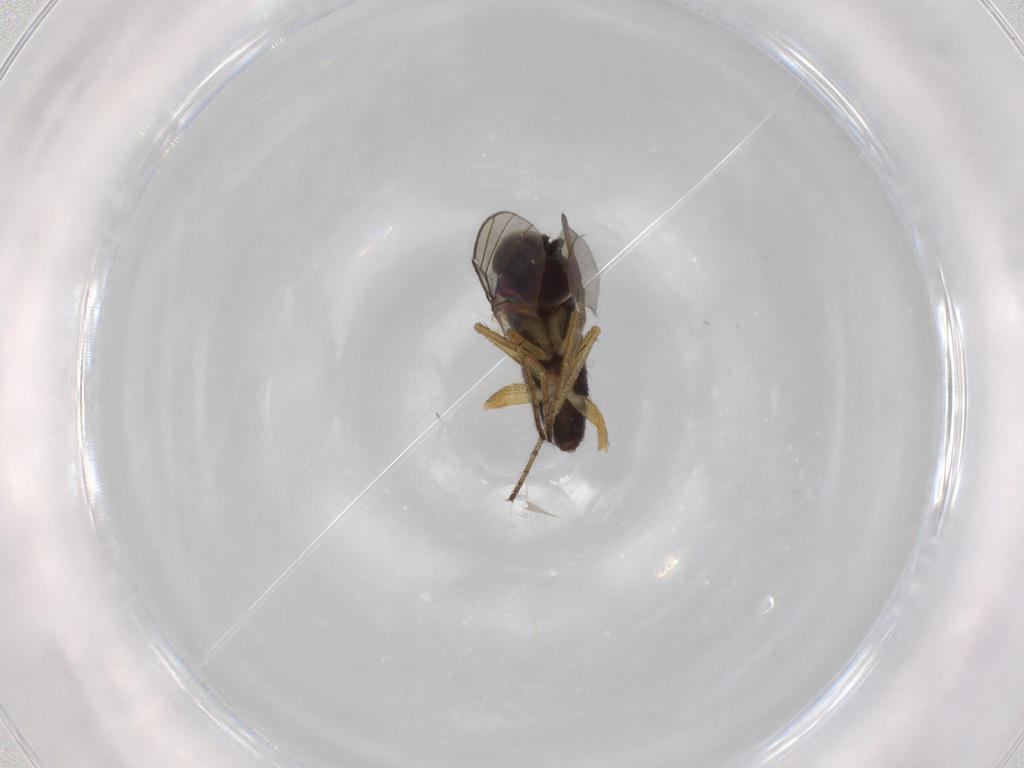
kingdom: Animalia
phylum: Arthropoda
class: Insecta
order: Diptera
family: Dolichopodidae
